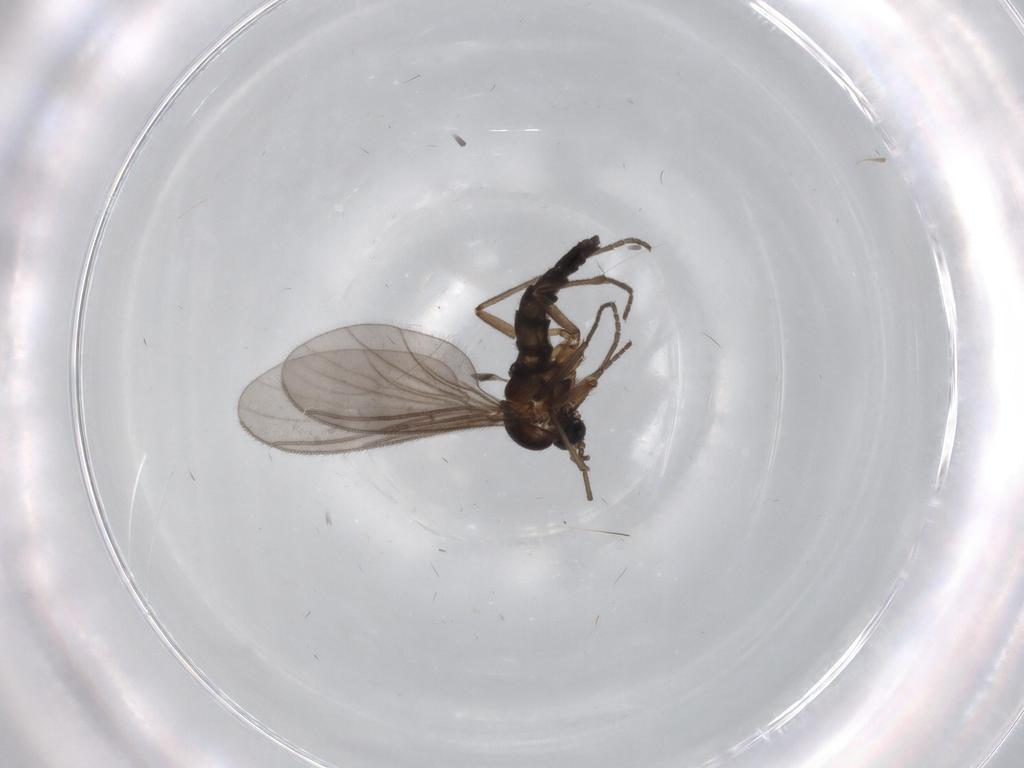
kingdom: Animalia
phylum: Arthropoda
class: Insecta
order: Diptera
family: Sciaridae
